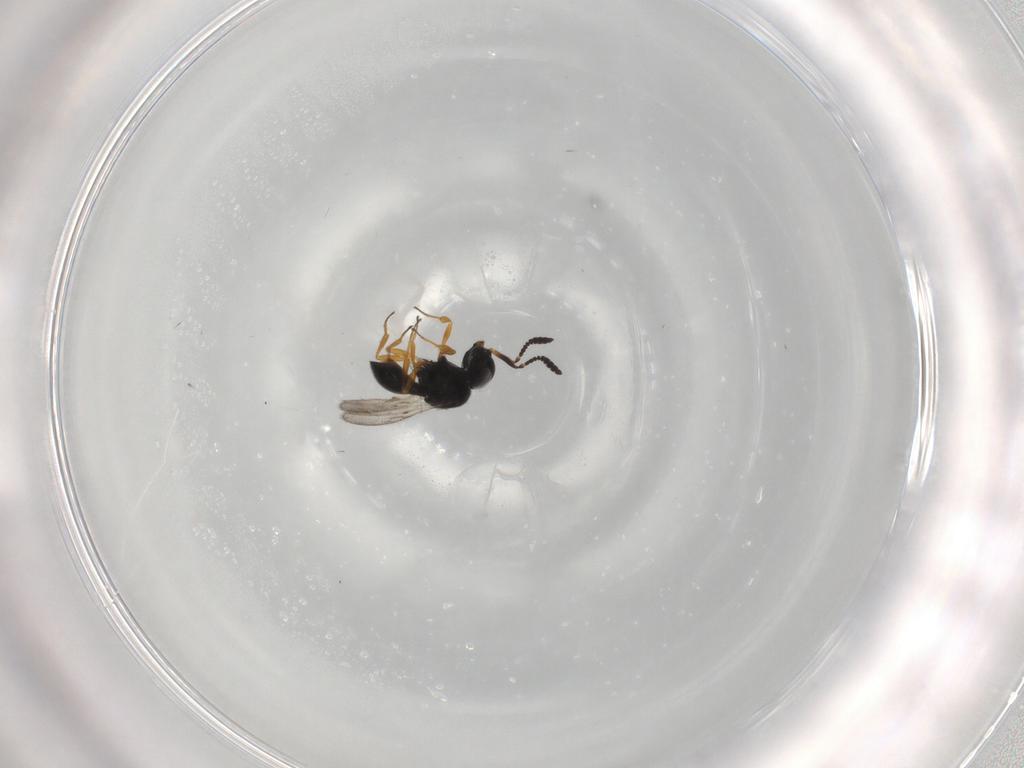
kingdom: Animalia
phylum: Arthropoda
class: Insecta
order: Hymenoptera
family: Scelionidae
